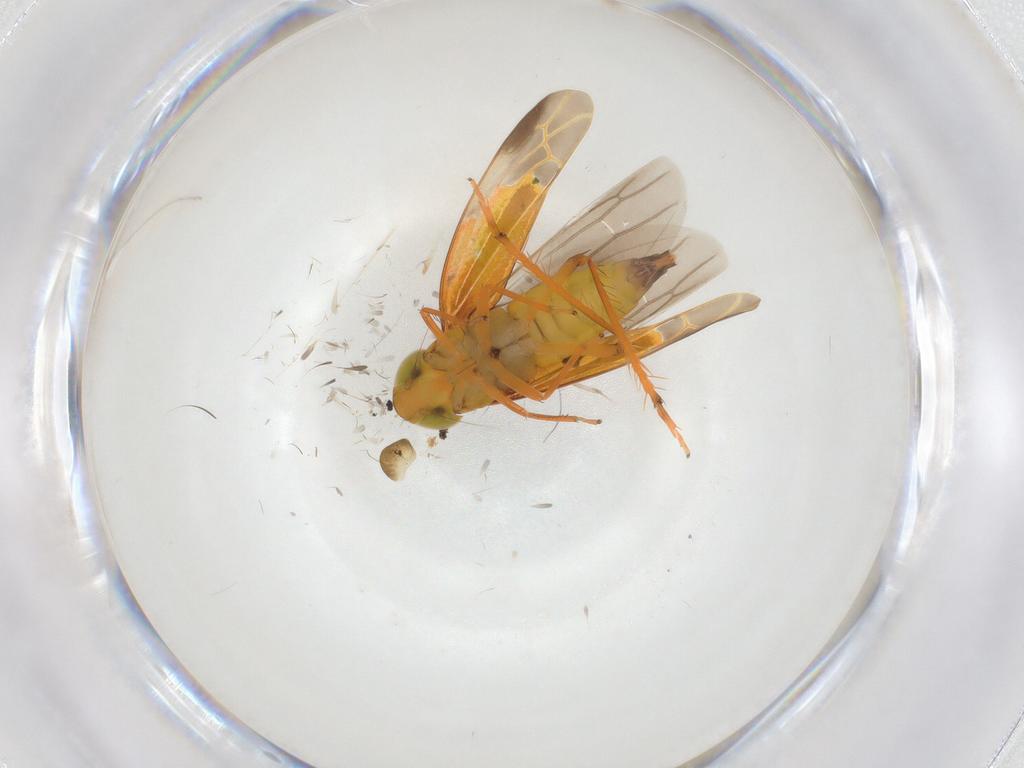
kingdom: Animalia
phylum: Arthropoda
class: Insecta
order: Hemiptera
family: Cicadellidae
